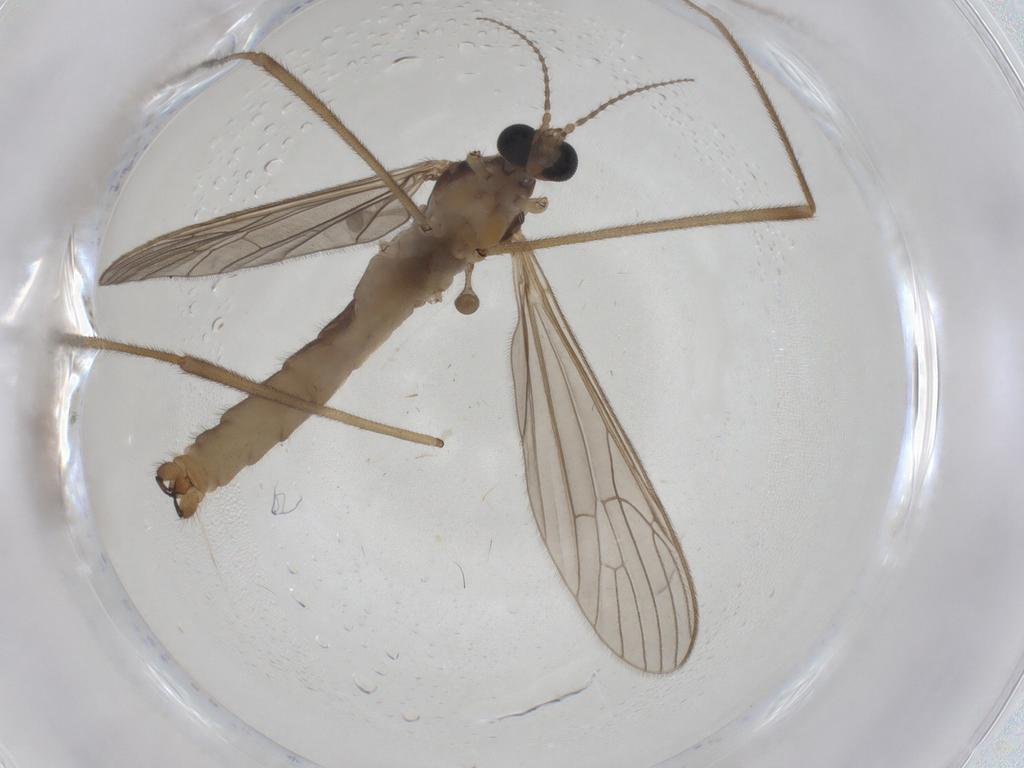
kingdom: Animalia
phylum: Arthropoda
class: Insecta
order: Diptera
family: Limoniidae
